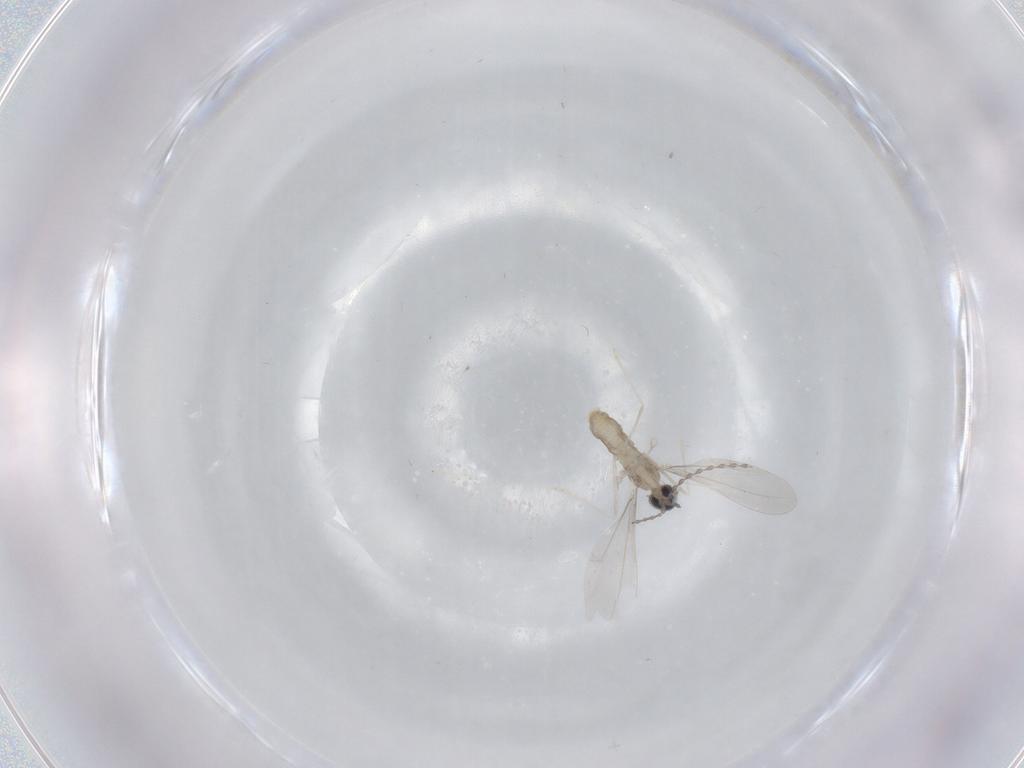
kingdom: Animalia
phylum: Arthropoda
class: Insecta
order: Diptera
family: Cecidomyiidae
